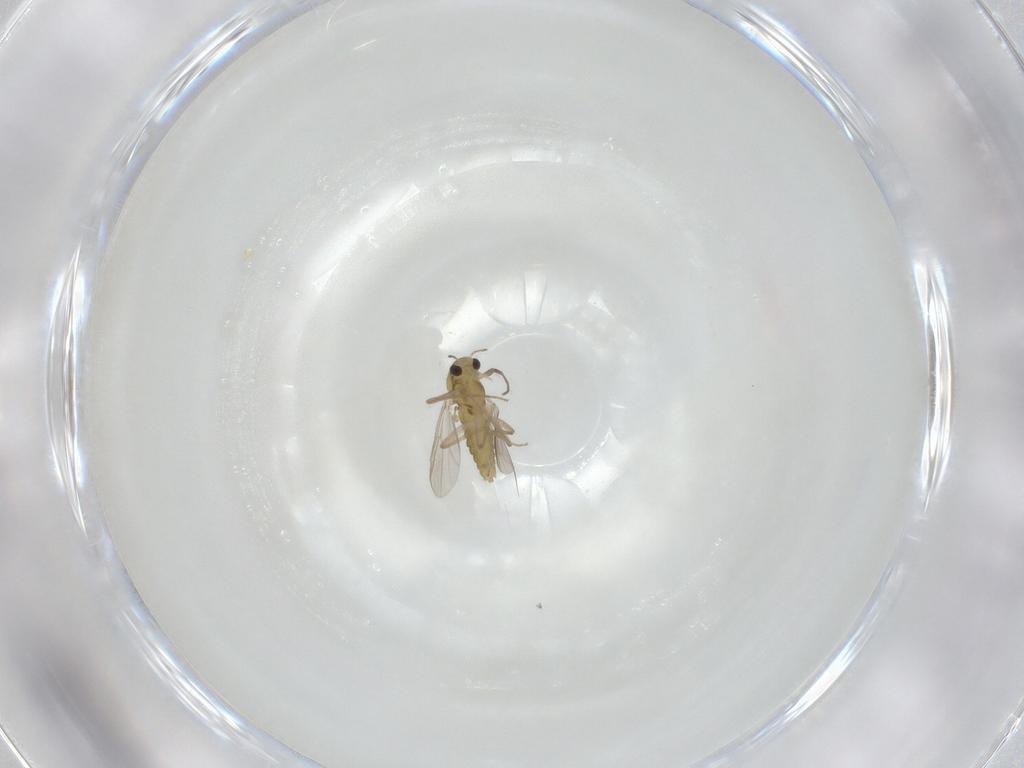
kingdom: Animalia
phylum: Arthropoda
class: Insecta
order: Diptera
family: Chironomidae
